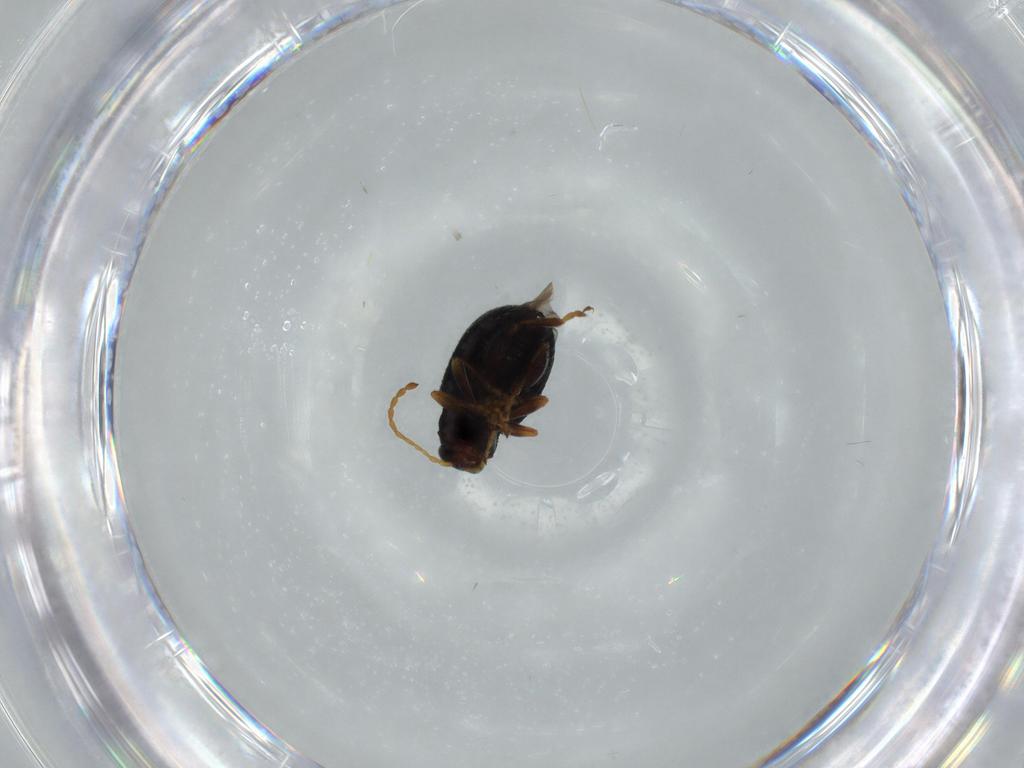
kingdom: Animalia
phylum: Arthropoda
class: Insecta
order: Coleoptera
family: Chrysomelidae
